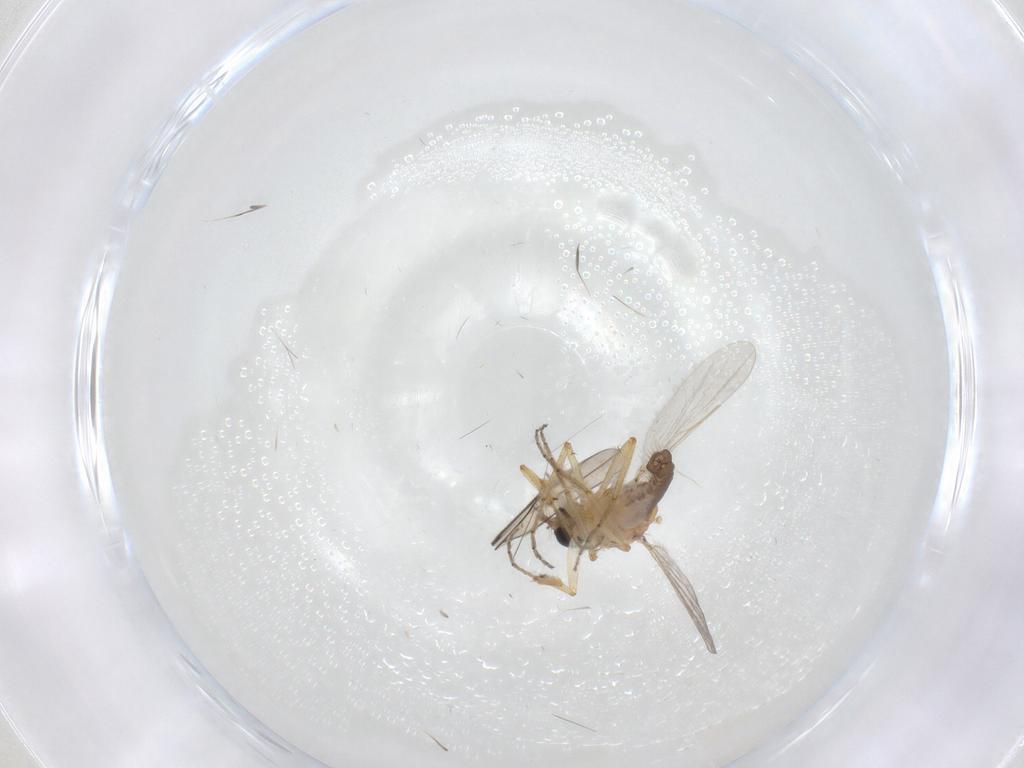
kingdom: Animalia
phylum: Arthropoda
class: Insecta
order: Diptera
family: Ceratopogonidae
